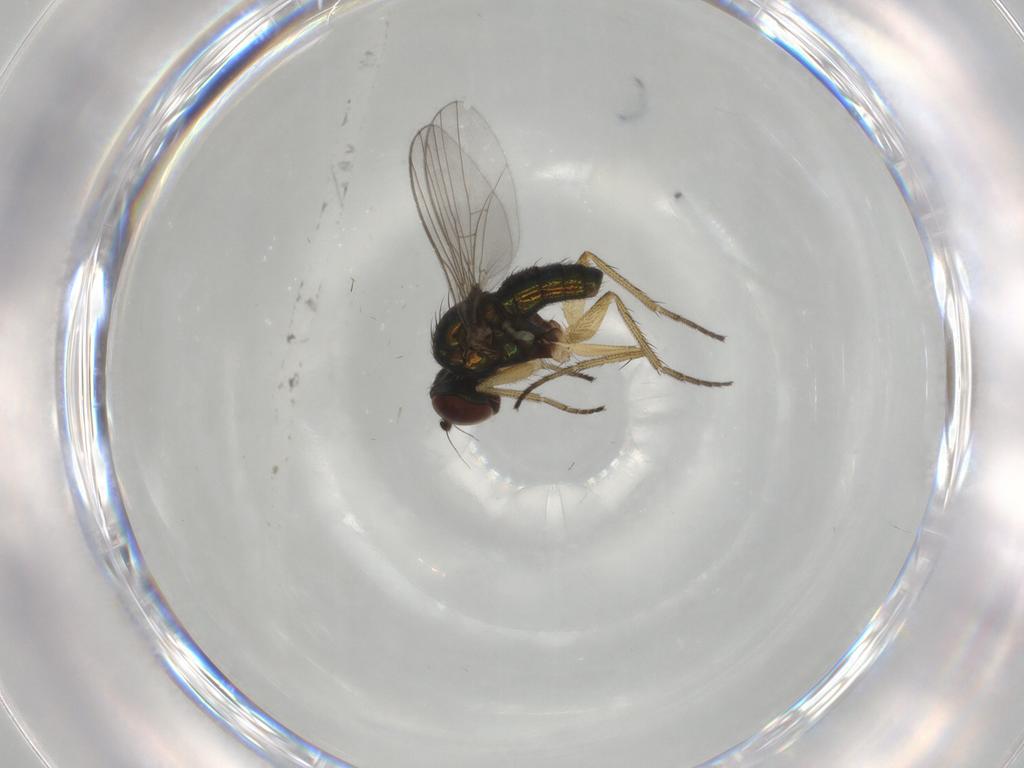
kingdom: Animalia
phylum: Arthropoda
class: Insecta
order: Diptera
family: Dolichopodidae
